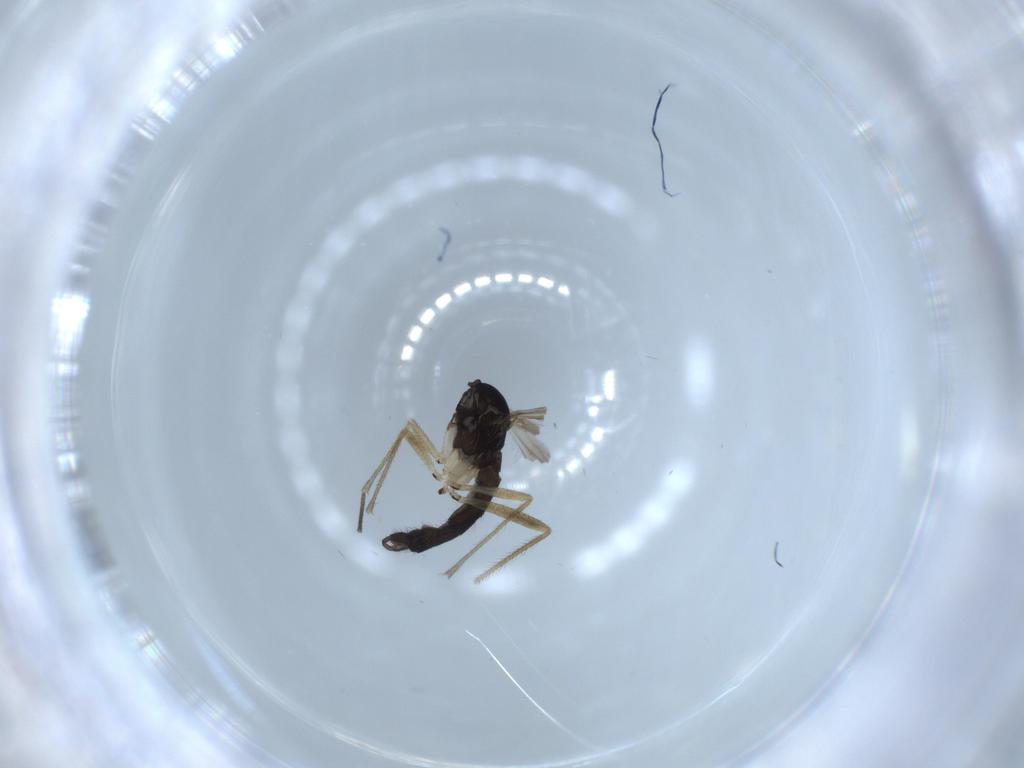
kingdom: Animalia
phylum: Arthropoda
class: Insecta
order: Diptera
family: Sciaridae
